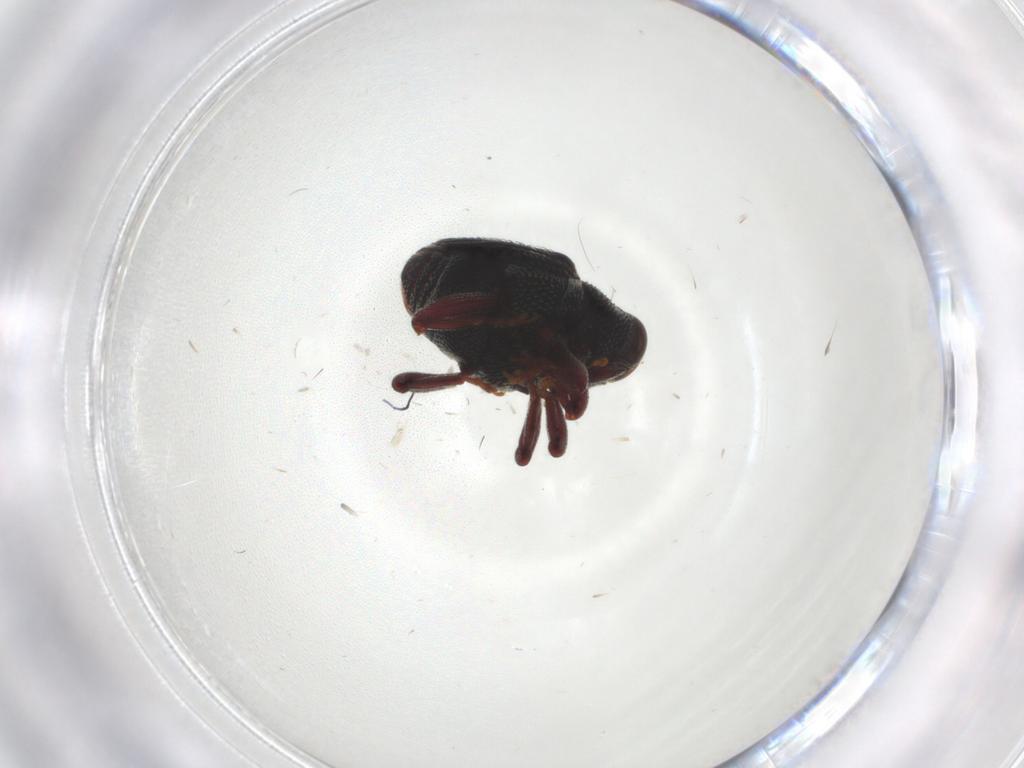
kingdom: Animalia
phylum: Arthropoda
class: Insecta
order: Coleoptera
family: Curculionidae
